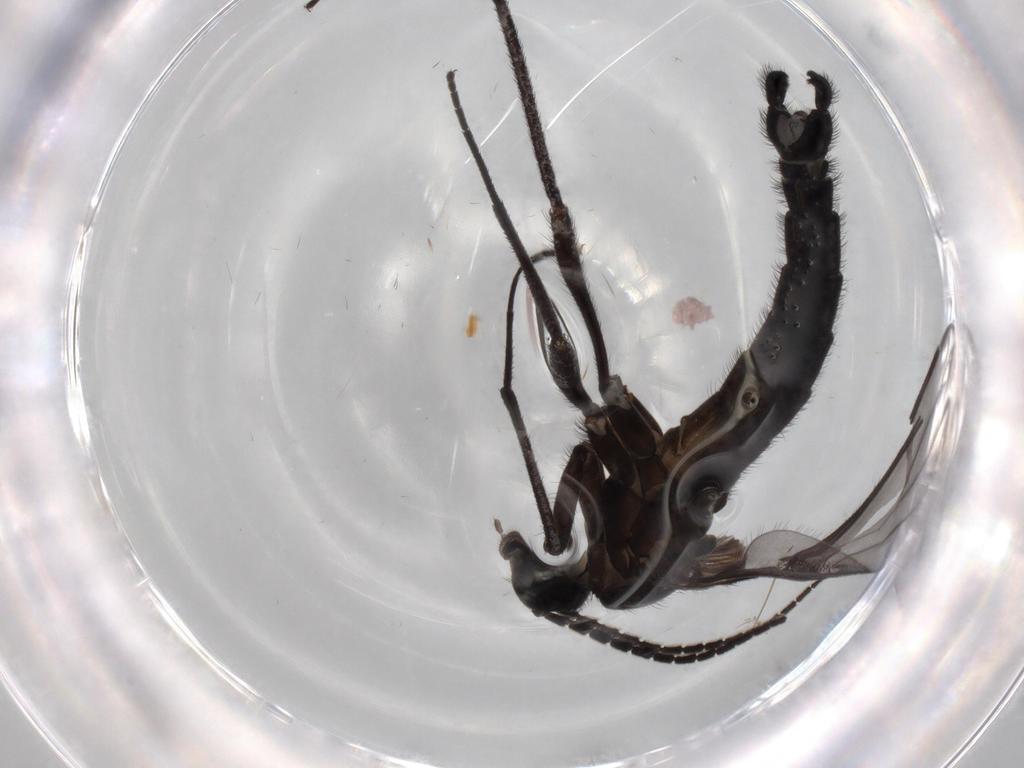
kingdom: Animalia
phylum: Arthropoda
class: Insecta
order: Diptera
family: Phoridae
